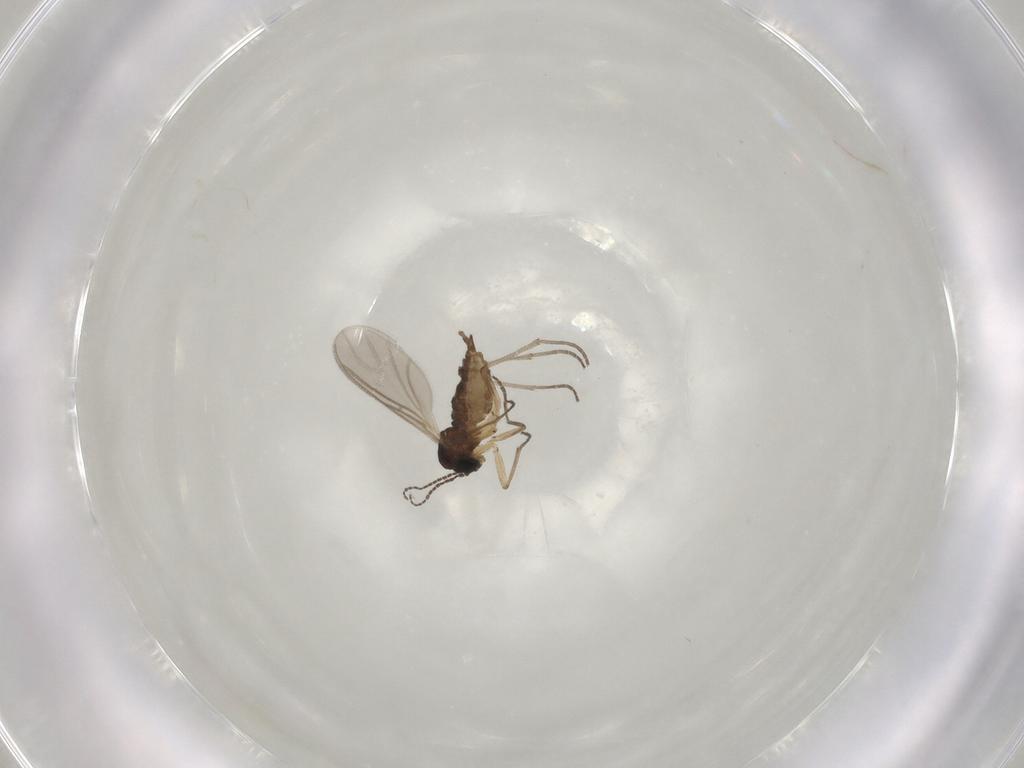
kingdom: Animalia
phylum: Arthropoda
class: Insecta
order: Diptera
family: Sciaridae
